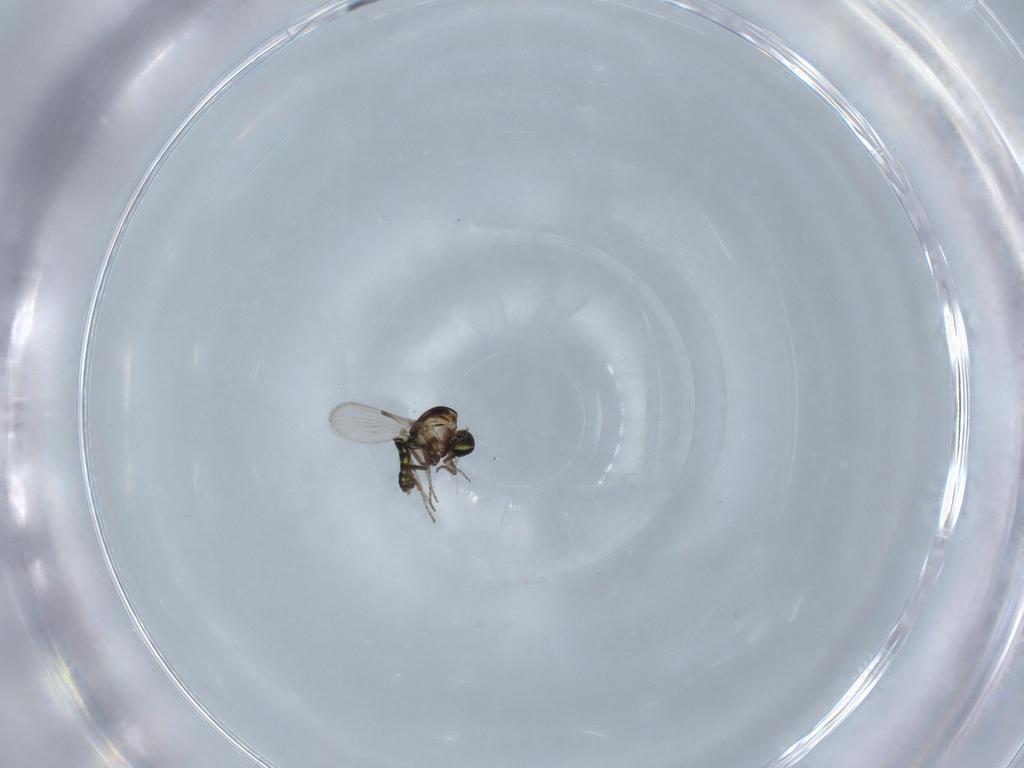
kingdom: Animalia
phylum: Arthropoda
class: Insecta
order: Diptera
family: Ceratopogonidae
